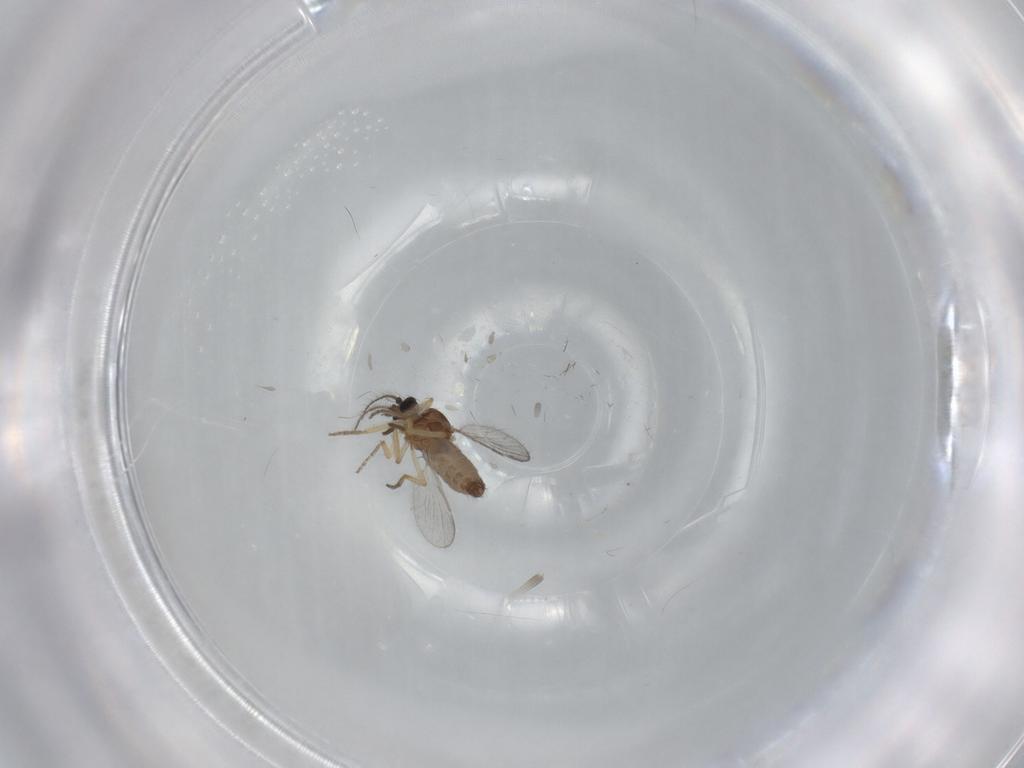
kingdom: Animalia
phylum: Arthropoda
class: Insecta
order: Diptera
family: Ceratopogonidae
